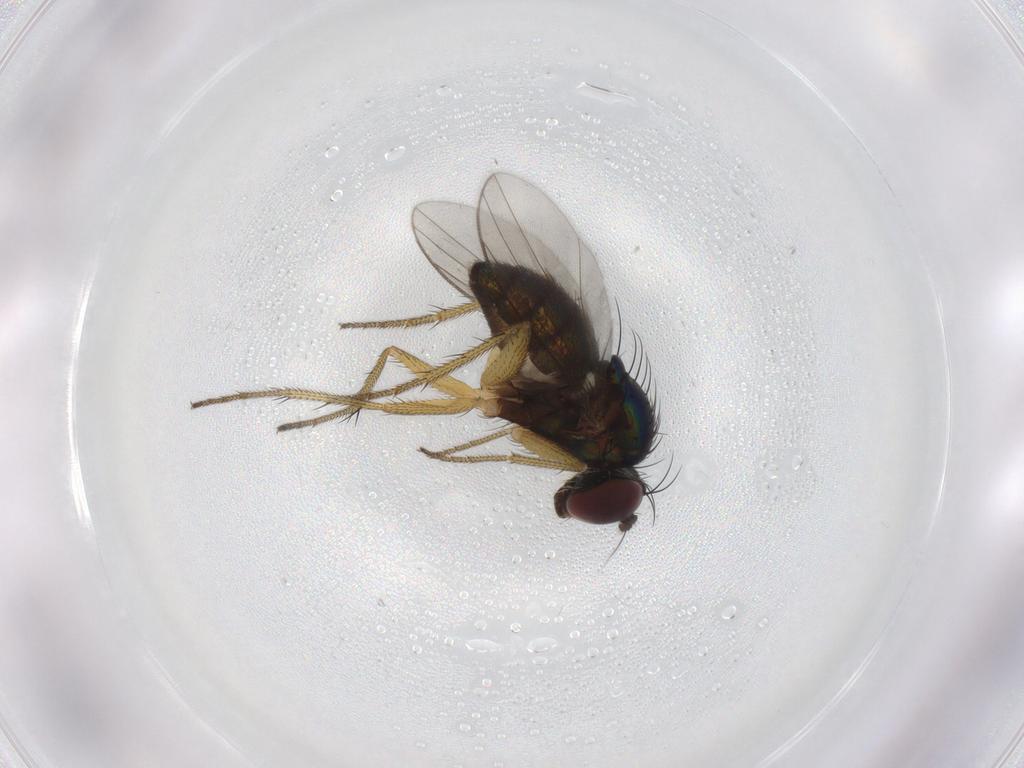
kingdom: Animalia
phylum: Arthropoda
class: Insecta
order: Diptera
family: Dolichopodidae
